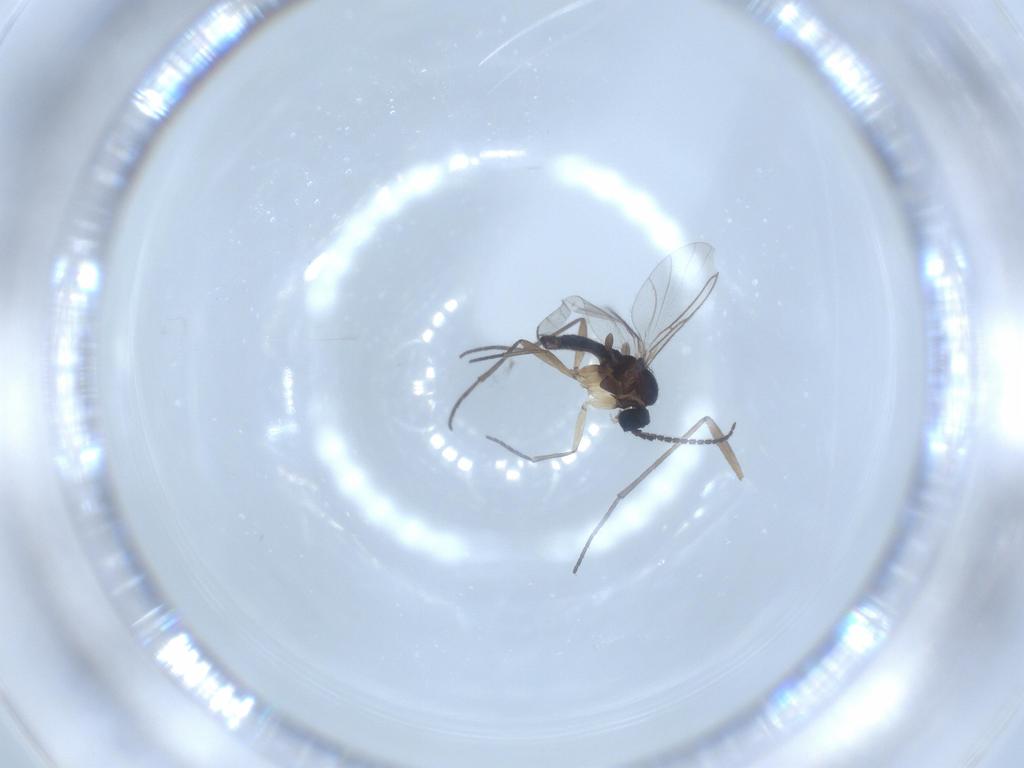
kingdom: Animalia
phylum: Arthropoda
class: Insecta
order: Diptera
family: Sciaridae
